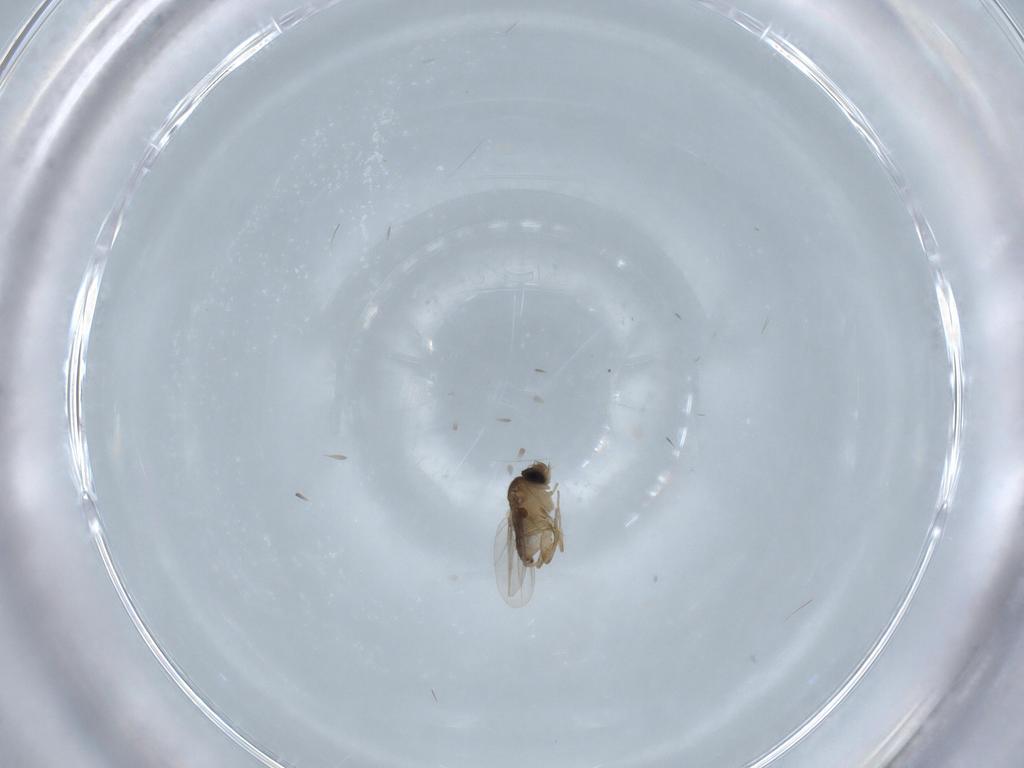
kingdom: Animalia
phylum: Arthropoda
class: Insecta
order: Diptera
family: Phoridae
